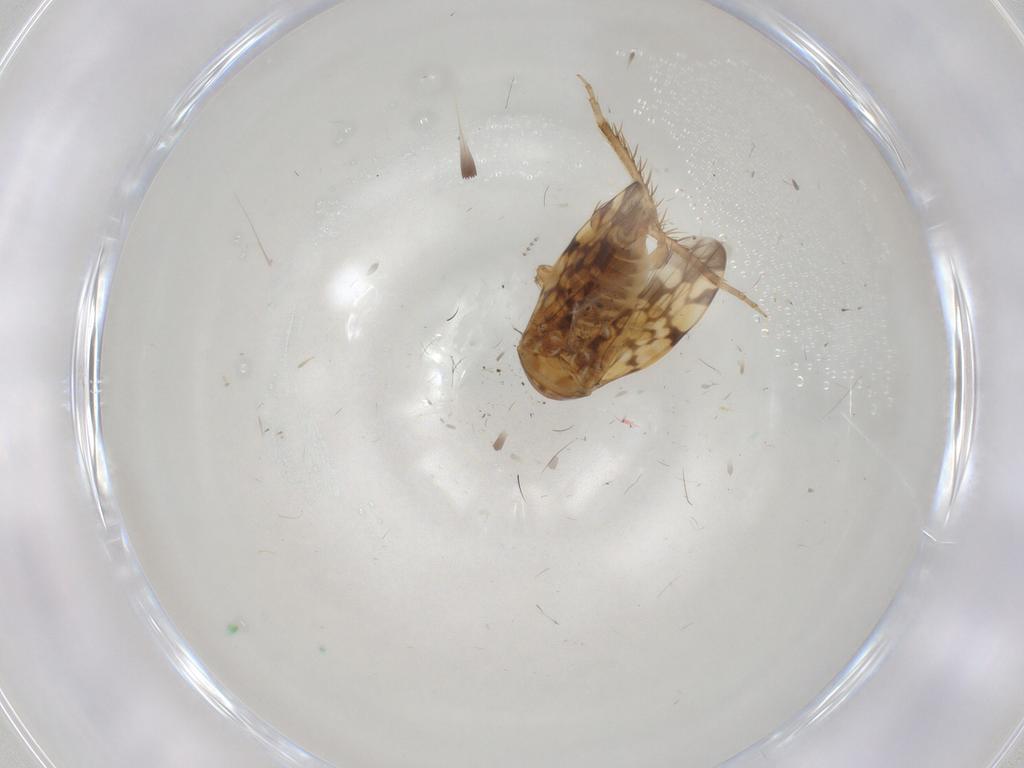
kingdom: Animalia
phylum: Arthropoda
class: Insecta
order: Hemiptera
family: Cicadellidae
